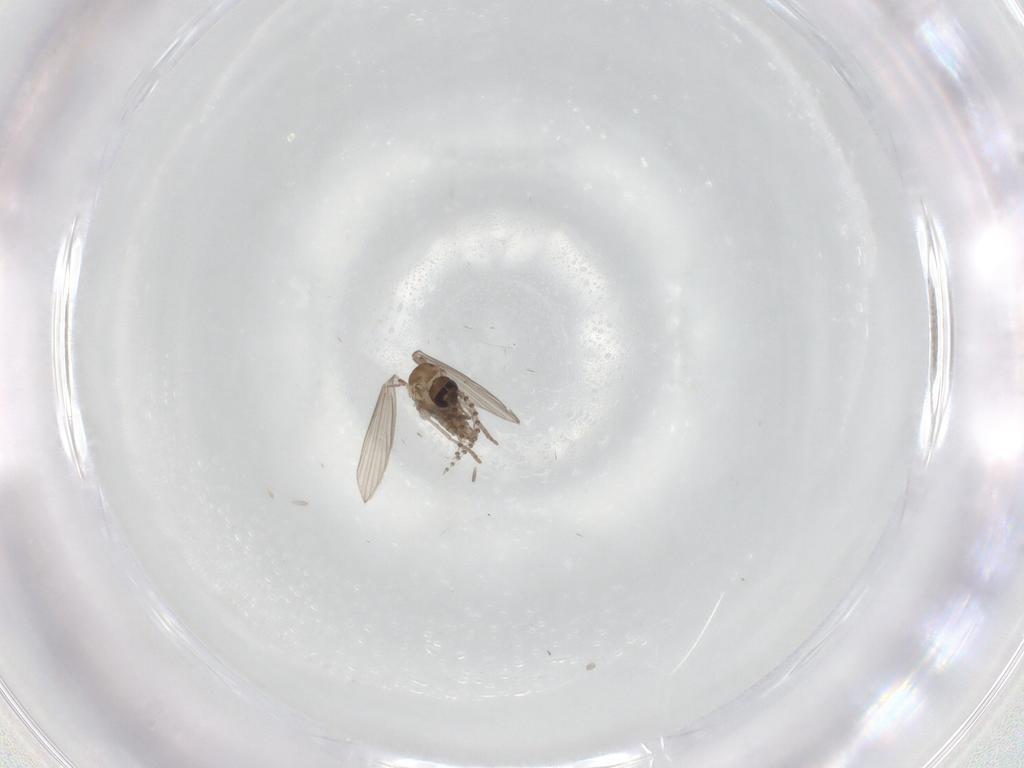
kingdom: Animalia
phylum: Arthropoda
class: Insecta
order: Diptera
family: Psychodidae
